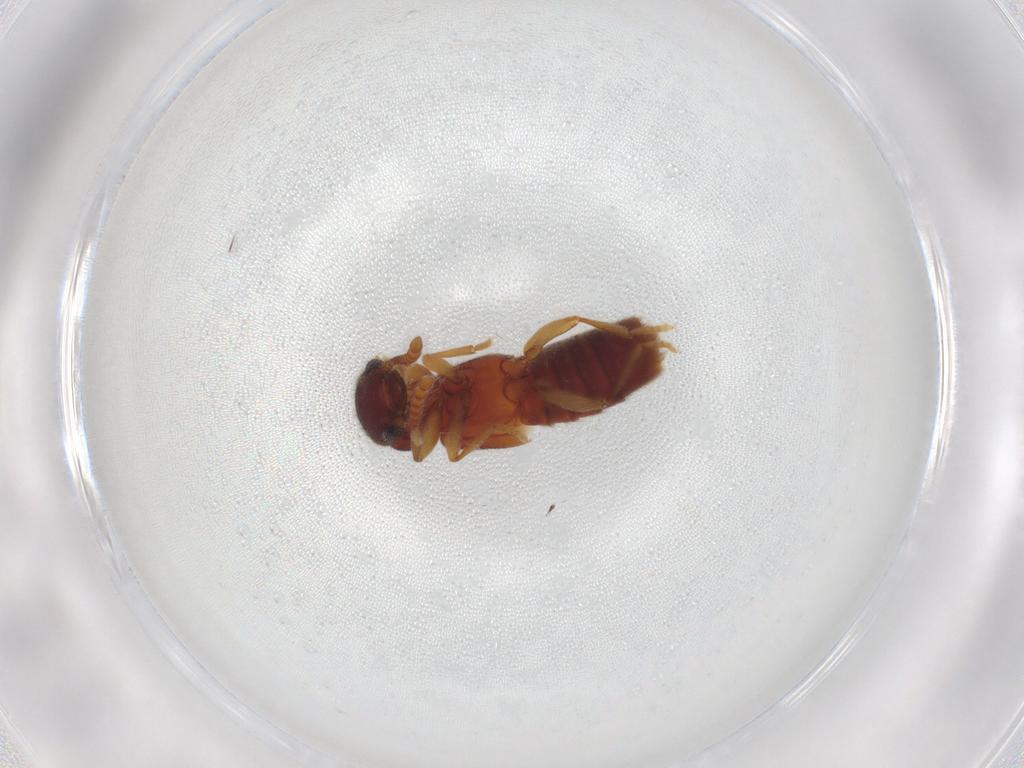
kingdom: Animalia
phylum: Arthropoda
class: Insecta
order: Coleoptera
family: Staphylinidae
